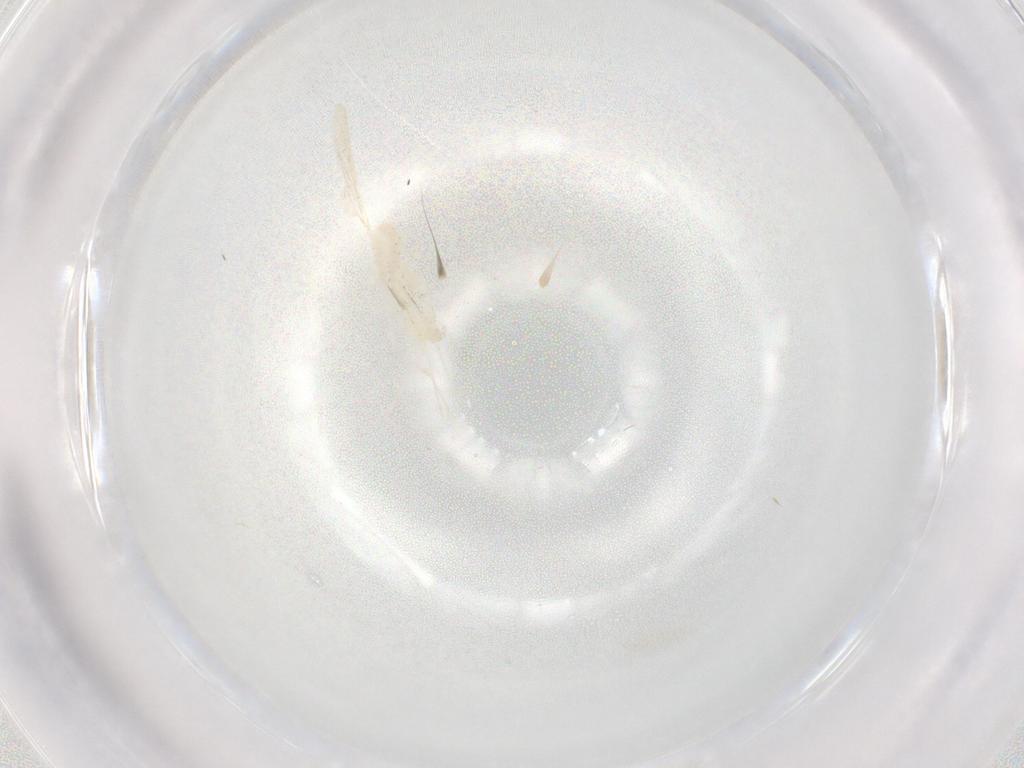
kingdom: Animalia
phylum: Arthropoda
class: Insecta
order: Diptera
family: Cecidomyiidae
